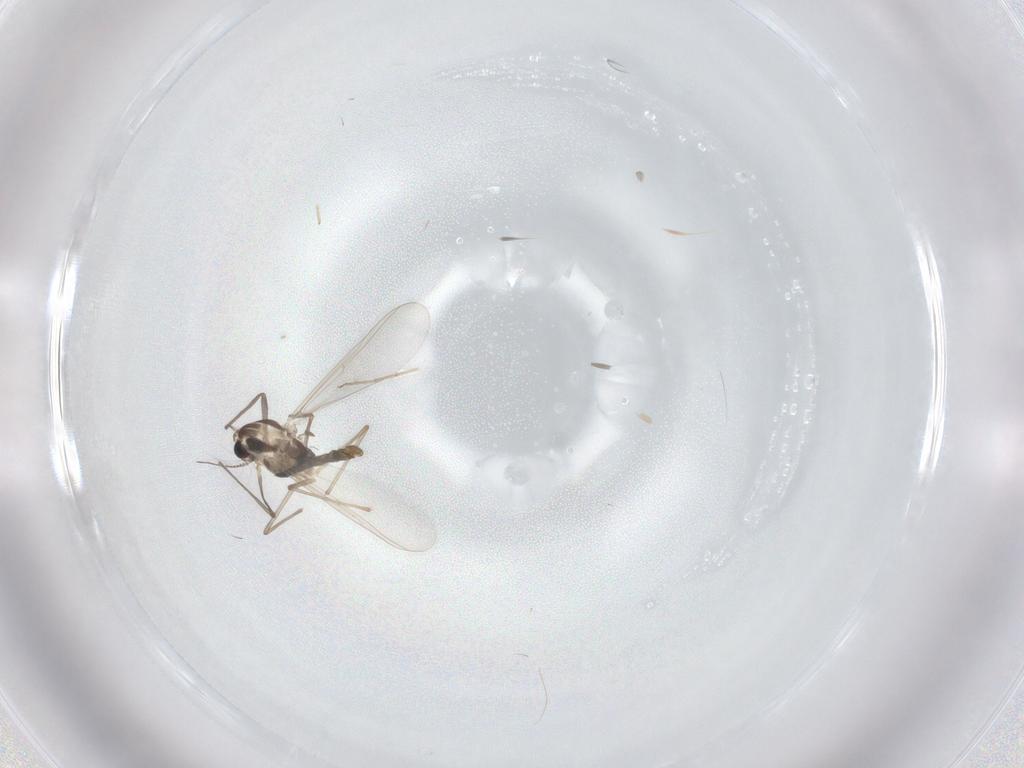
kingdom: Animalia
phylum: Arthropoda
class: Insecta
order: Diptera
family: Chironomidae
